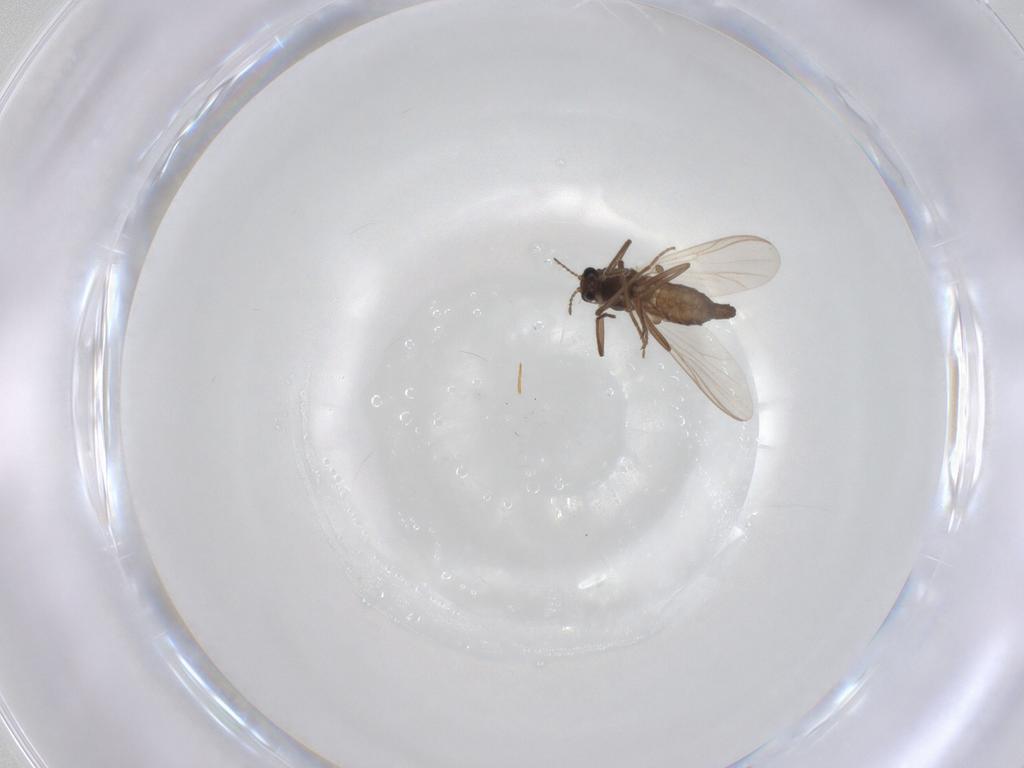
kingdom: Animalia
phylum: Arthropoda
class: Insecta
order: Diptera
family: Chironomidae
